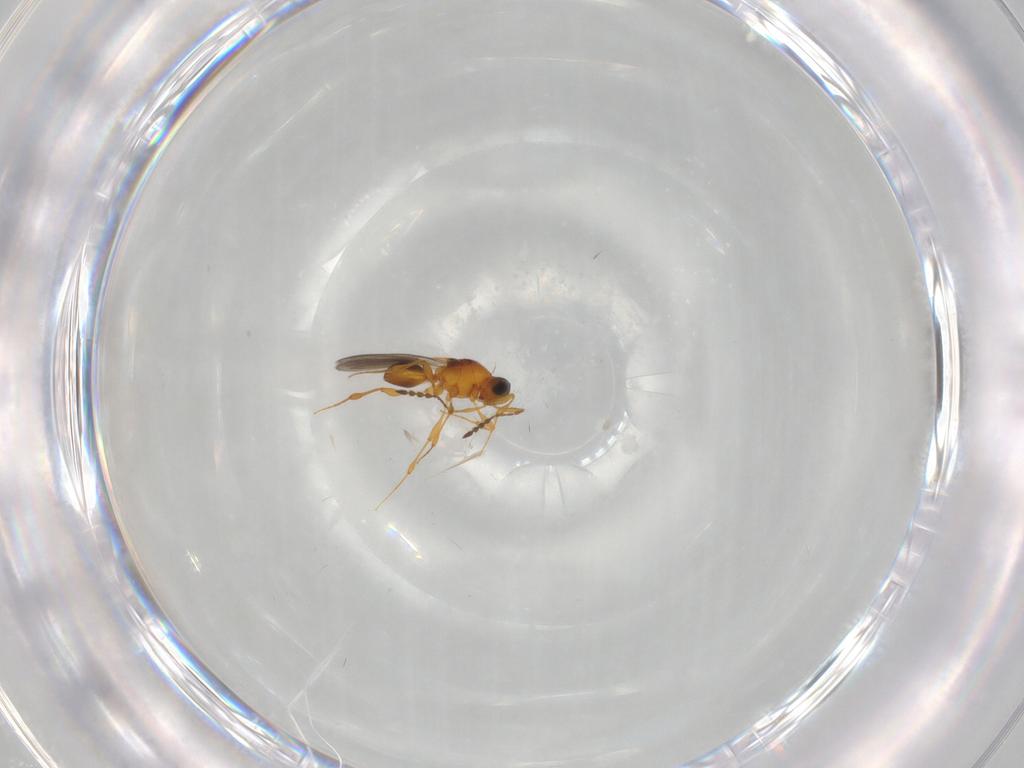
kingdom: Animalia
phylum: Arthropoda
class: Insecta
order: Hymenoptera
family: Platygastridae
